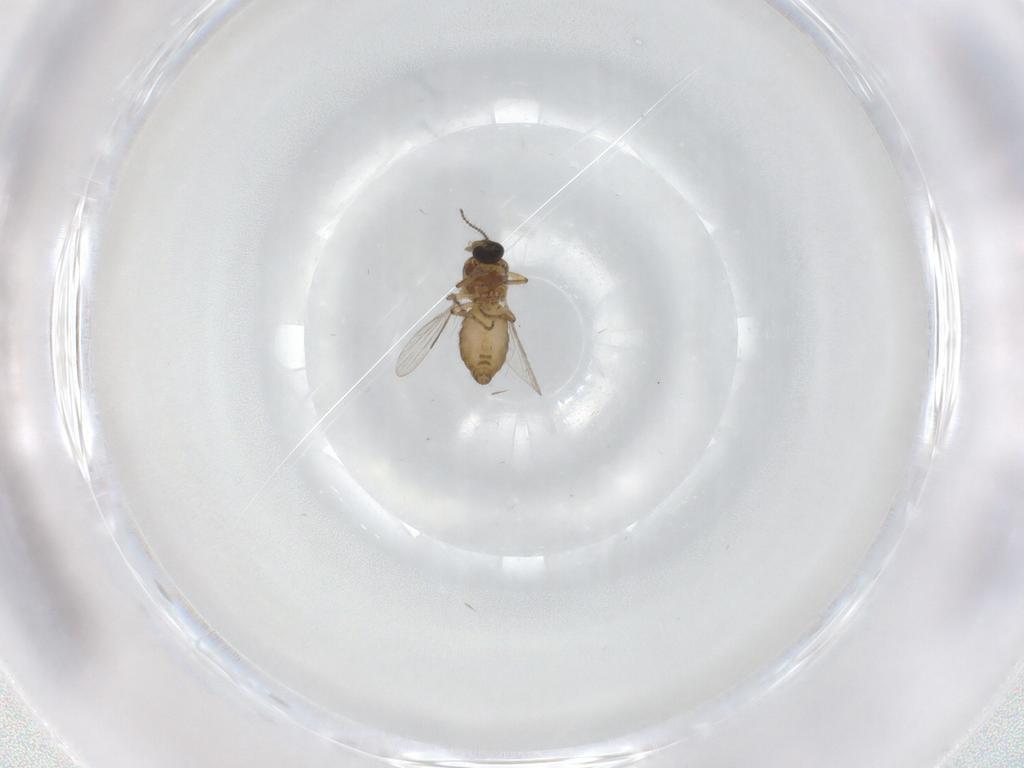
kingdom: Animalia
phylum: Arthropoda
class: Insecta
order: Diptera
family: Ceratopogonidae
